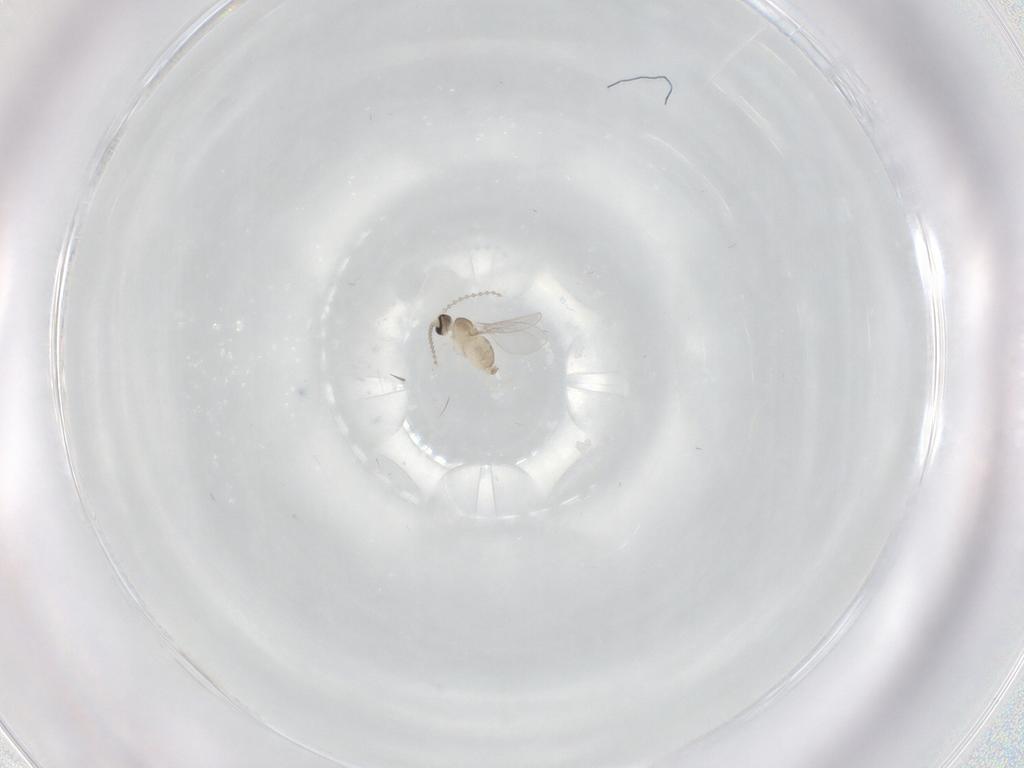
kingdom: Animalia
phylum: Arthropoda
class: Insecta
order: Diptera
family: Cecidomyiidae
